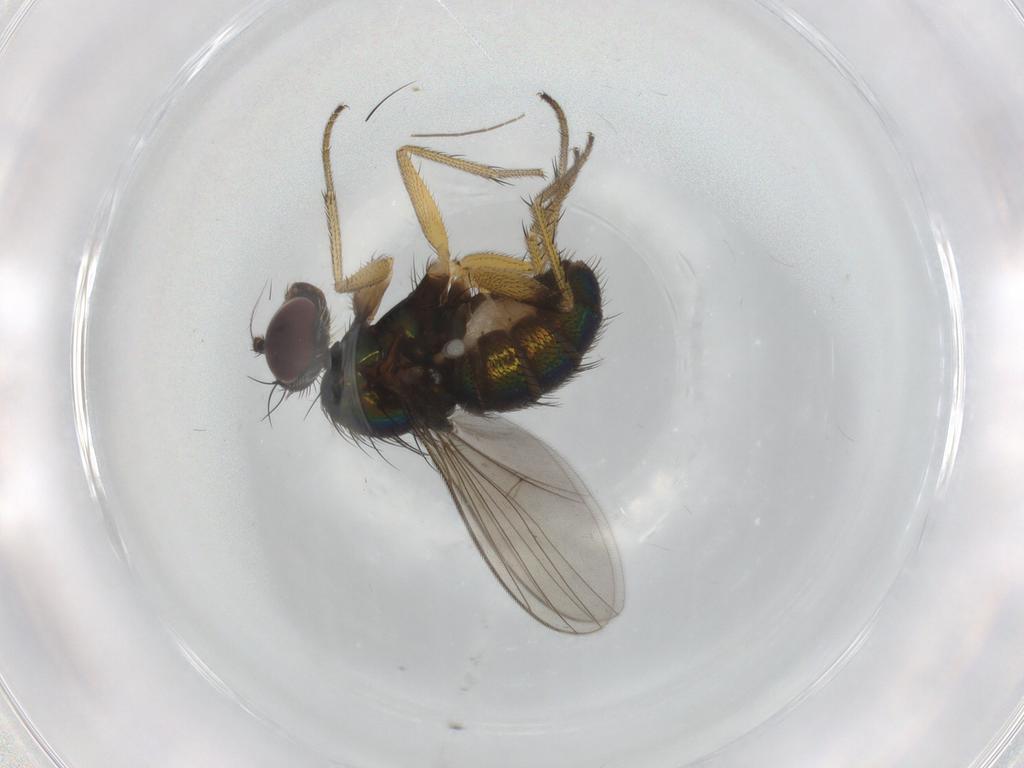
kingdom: Animalia
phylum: Arthropoda
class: Insecta
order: Diptera
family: Dolichopodidae
